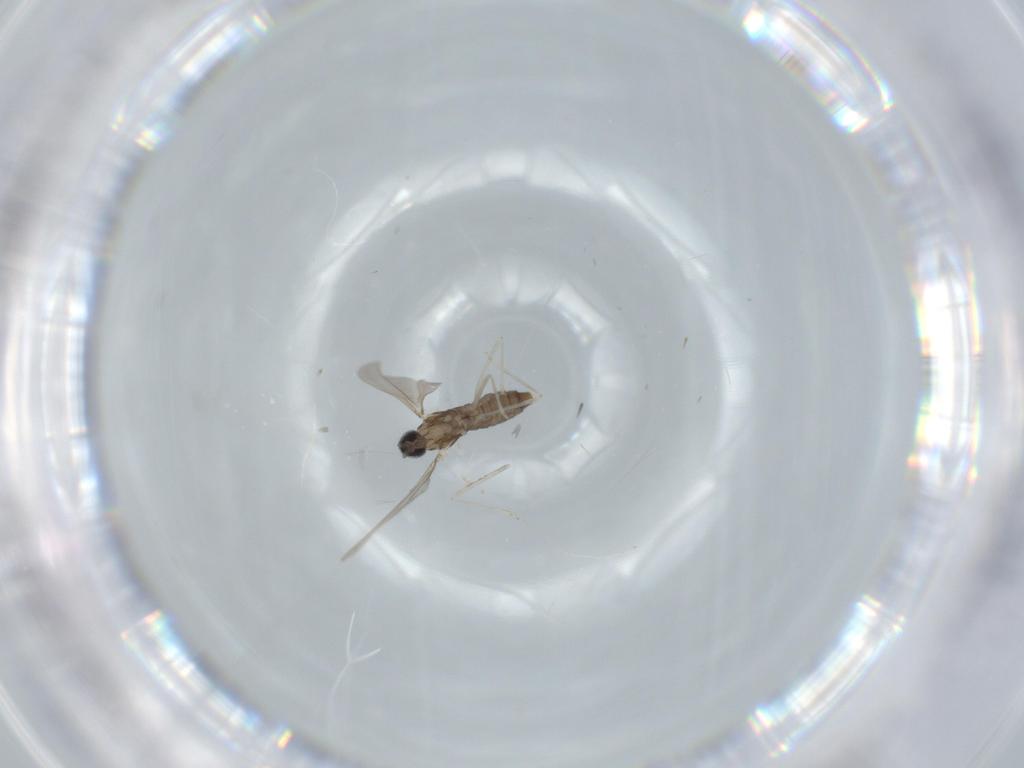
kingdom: Animalia
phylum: Arthropoda
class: Insecta
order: Diptera
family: Cecidomyiidae
